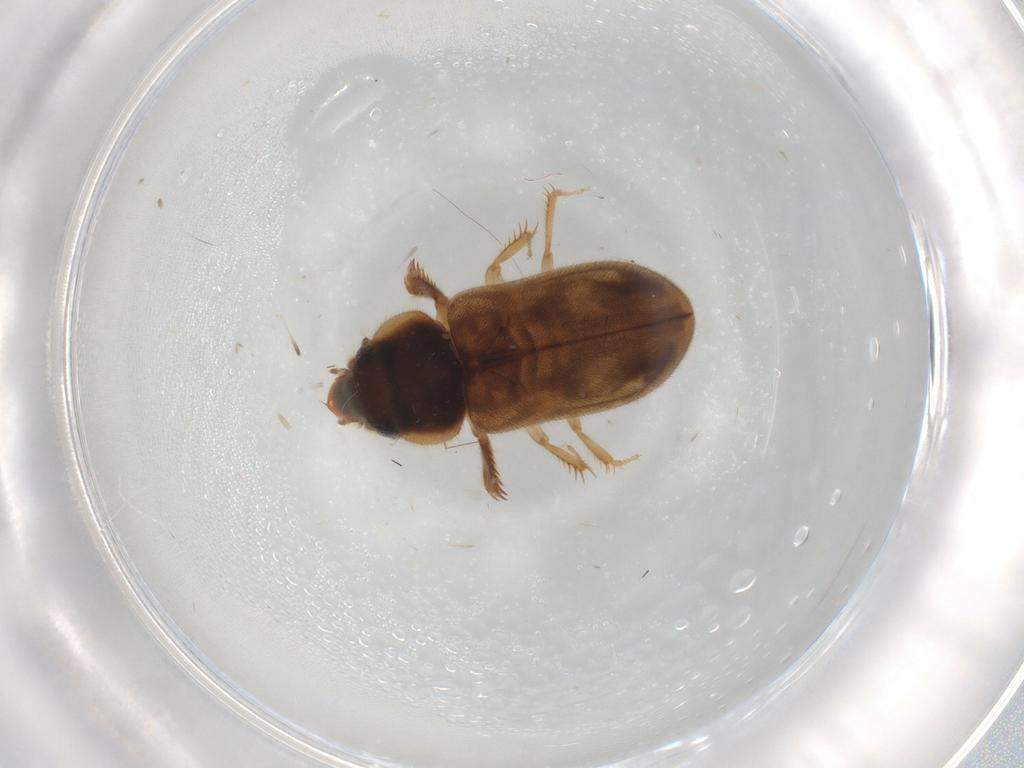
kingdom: Animalia
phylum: Arthropoda
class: Insecta
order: Coleoptera
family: Heteroceridae
